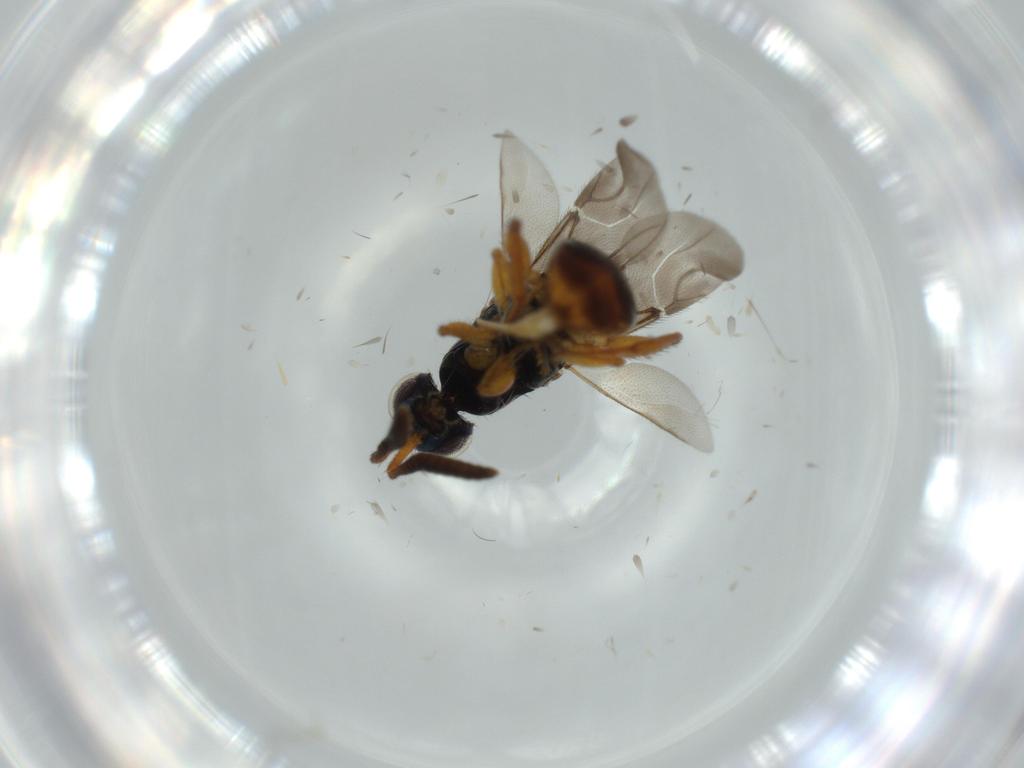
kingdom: Animalia
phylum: Arthropoda
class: Insecta
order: Hymenoptera
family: Chrysididae
